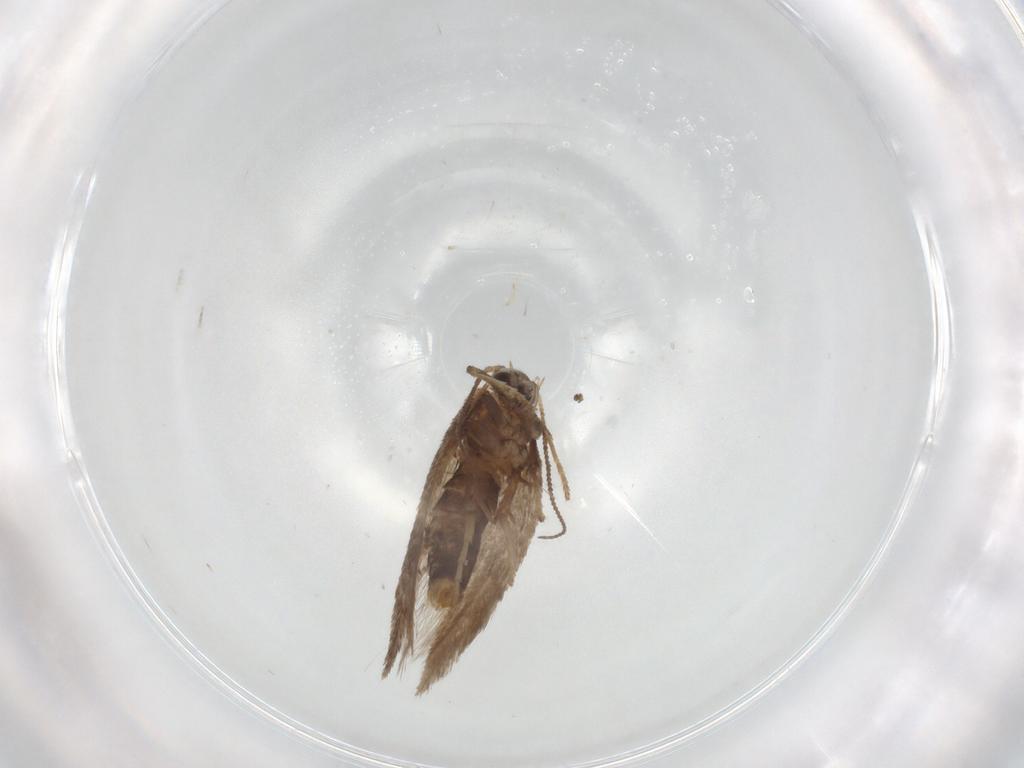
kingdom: Animalia
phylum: Arthropoda
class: Insecta
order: Lepidoptera
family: Nepticulidae
